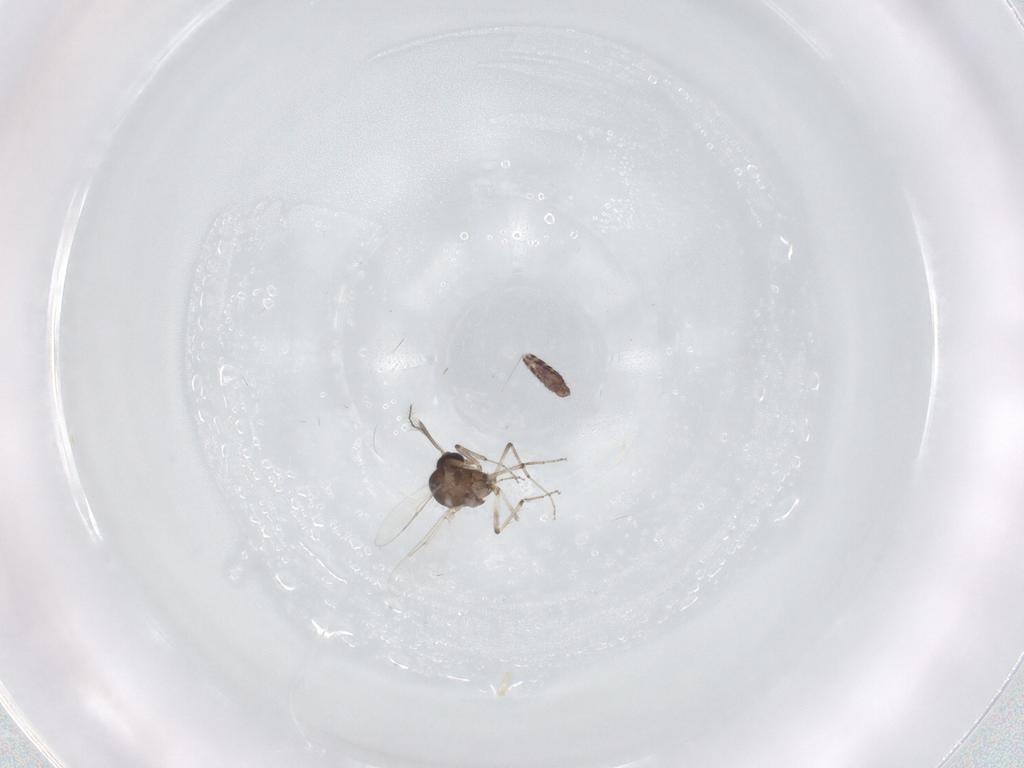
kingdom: Animalia
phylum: Arthropoda
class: Insecta
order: Diptera
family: Ceratopogonidae
